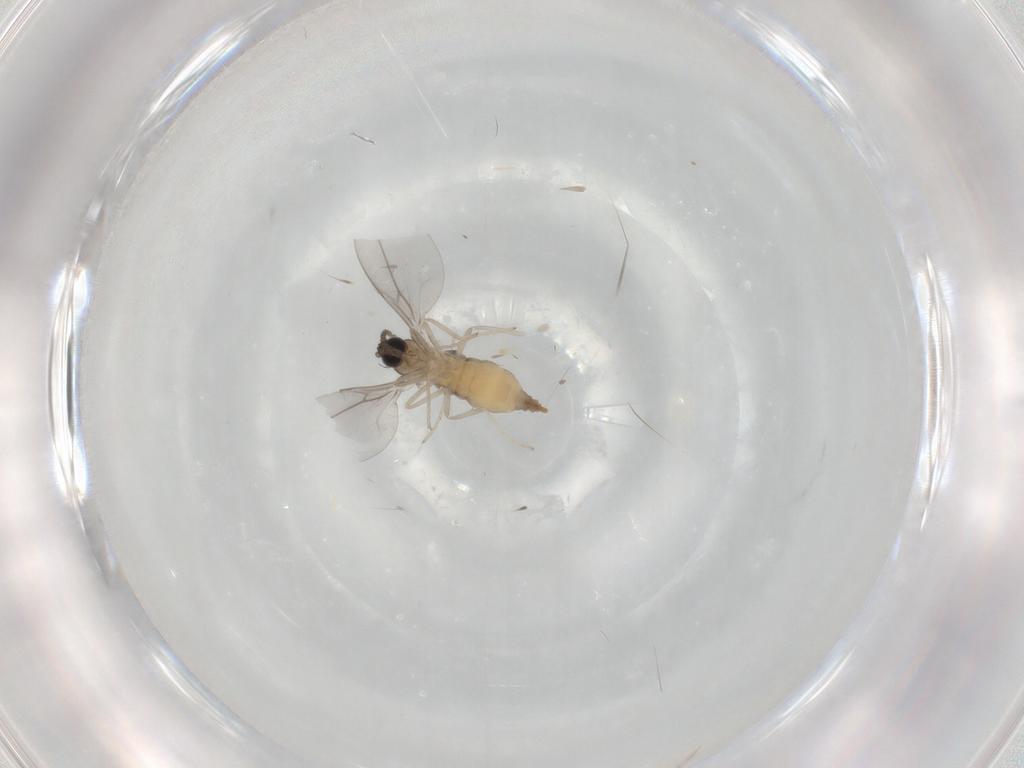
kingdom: Animalia
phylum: Arthropoda
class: Insecta
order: Diptera
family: Cecidomyiidae
